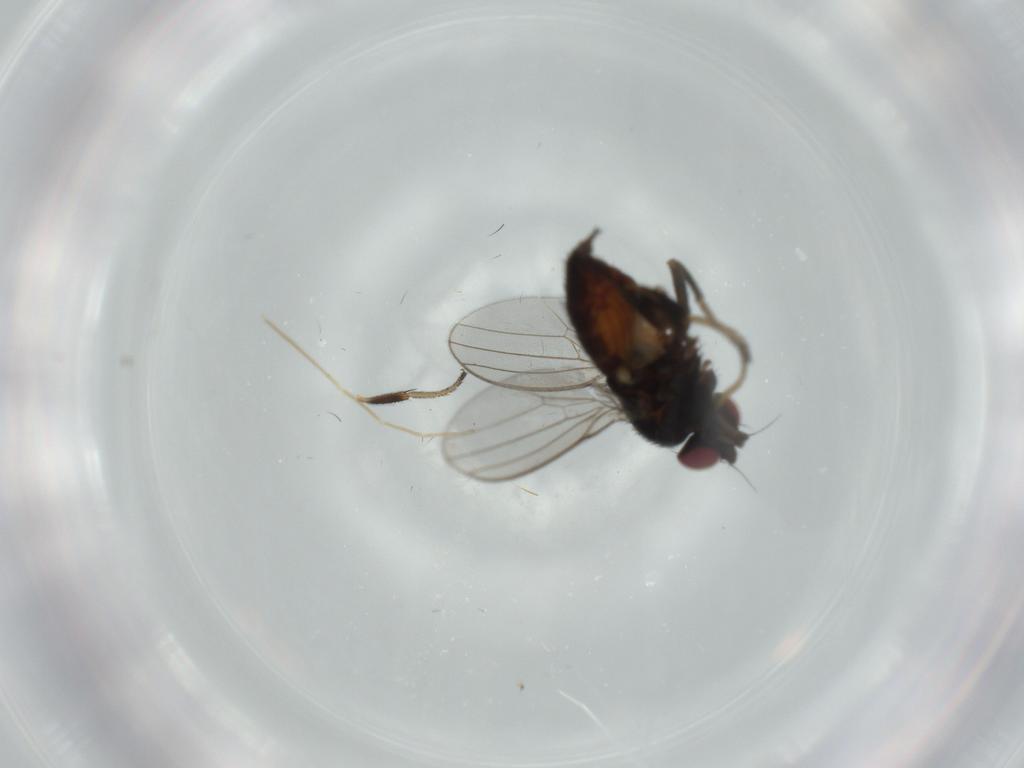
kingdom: Animalia
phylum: Arthropoda
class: Insecta
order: Diptera
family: Milichiidae
